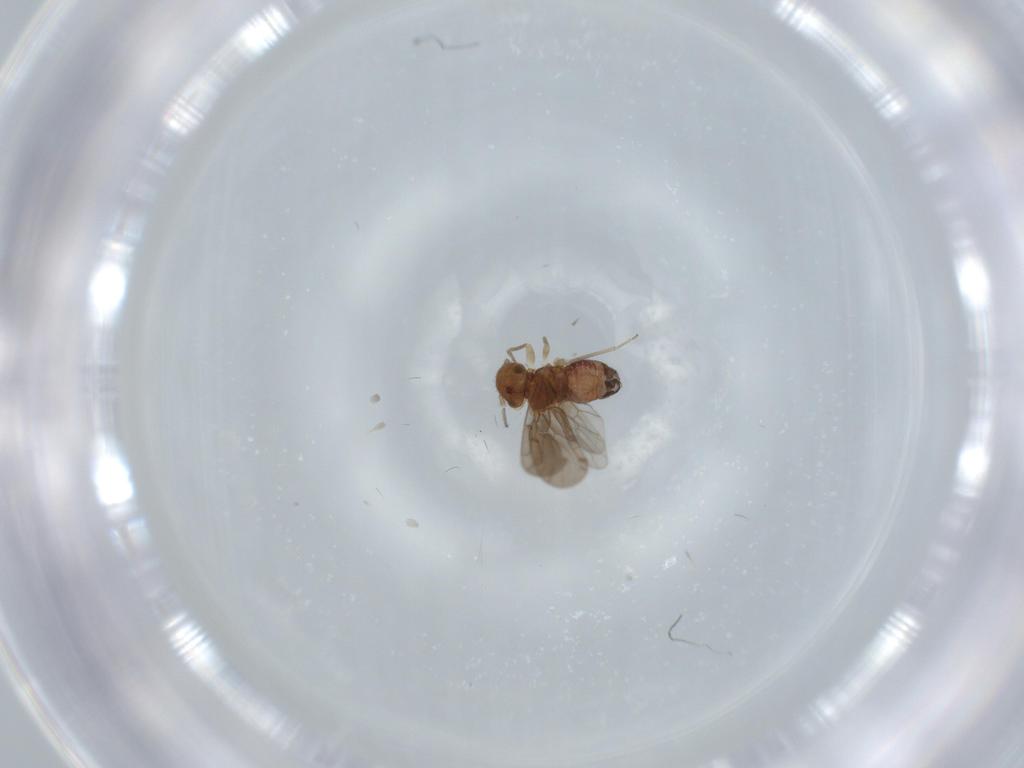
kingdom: Animalia
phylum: Arthropoda
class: Insecta
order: Psocodea
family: Ectopsocidae
